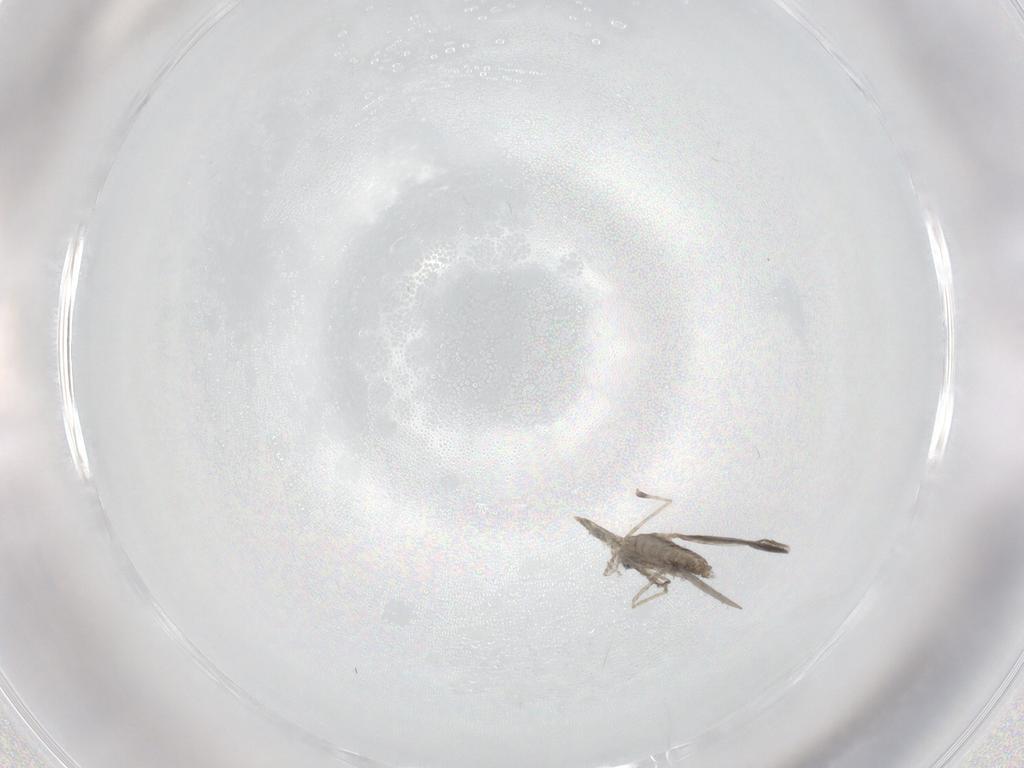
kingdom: Animalia
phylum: Arthropoda
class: Insecta
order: Diptera
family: Cecidomyiidae
